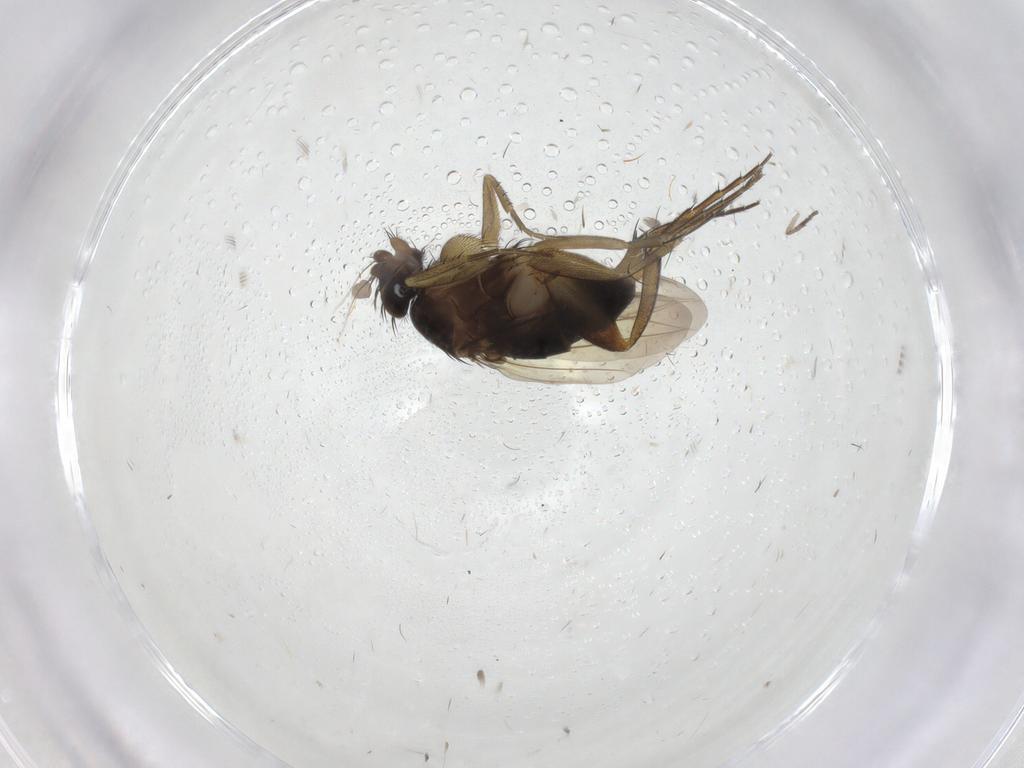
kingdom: Animalia
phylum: Arthropoda
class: Insecta
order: Diptera
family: Phoridae
